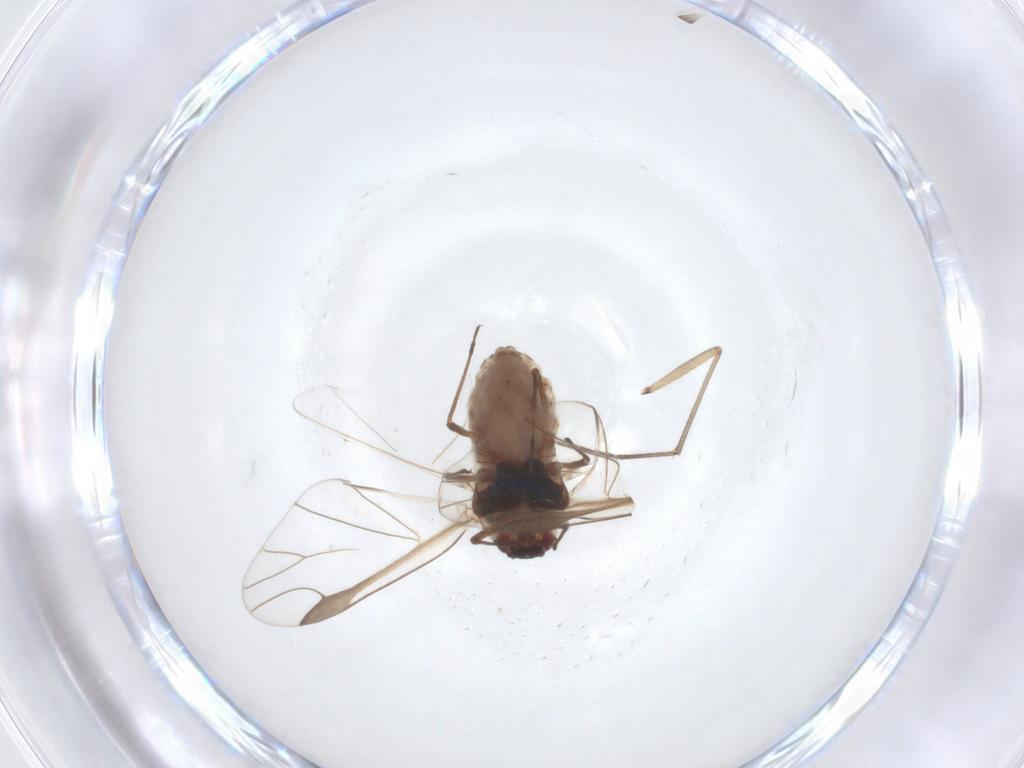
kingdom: Animalia
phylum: Arthropoda
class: Insecta
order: Hemiptera
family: Aphididae
